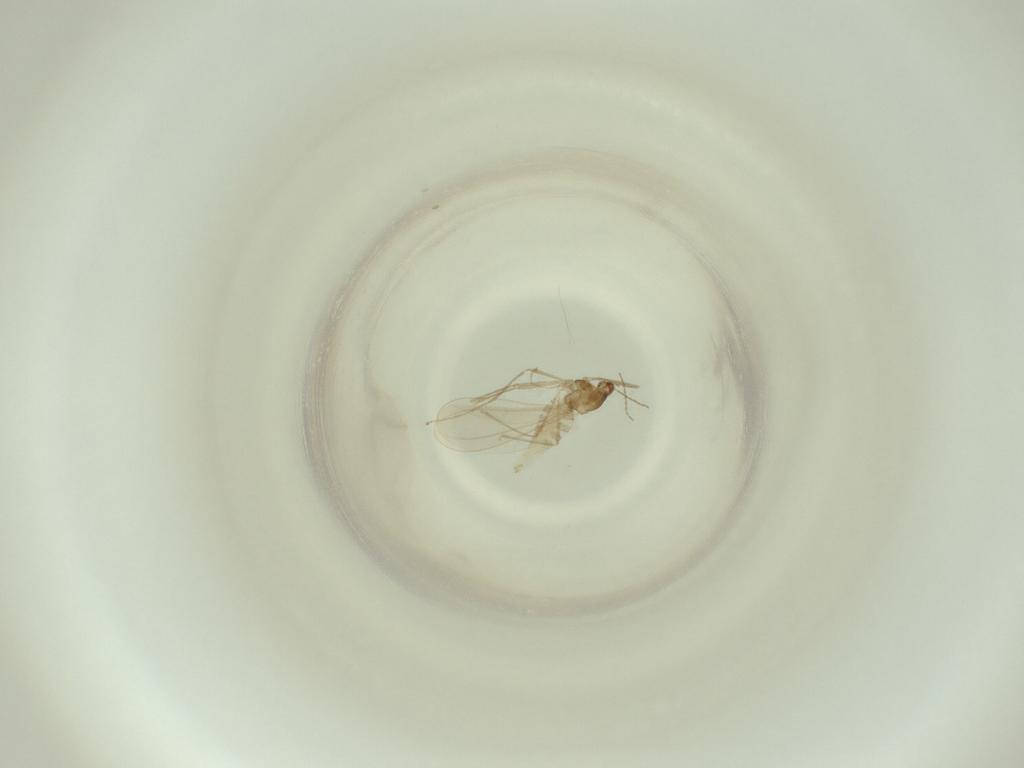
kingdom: Animalia
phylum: Arthropoda
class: Insecta
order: Diptera
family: Cecidomyiidae
